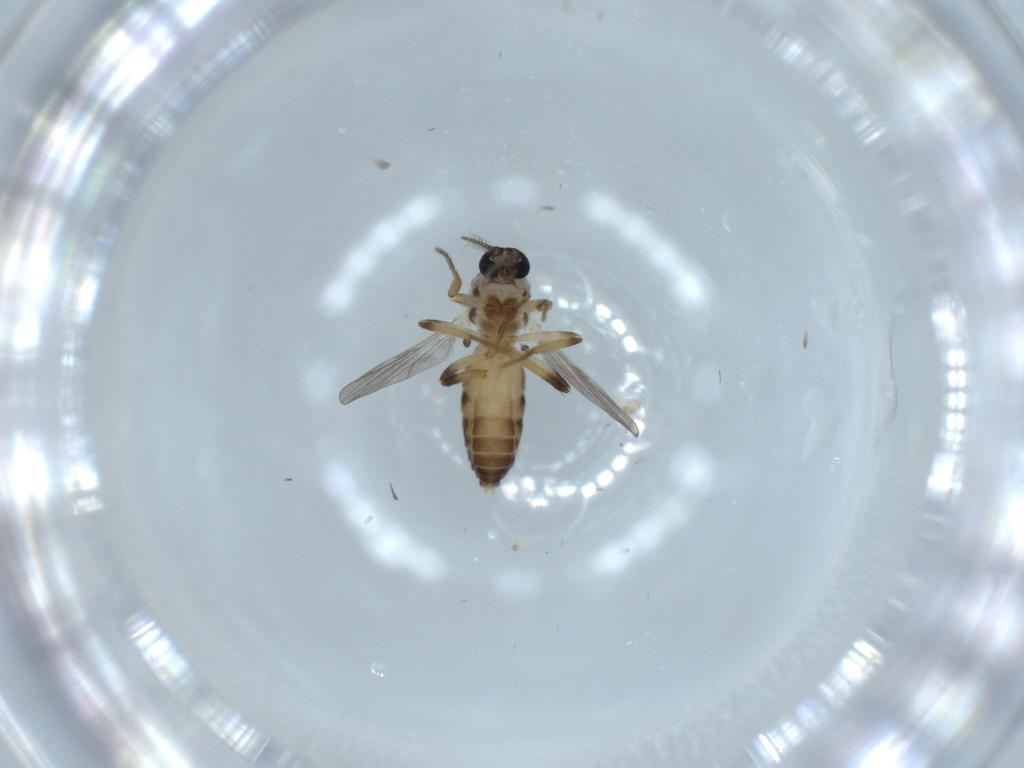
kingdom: Animalia
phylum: Arthropoda
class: Insecta
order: Diptera
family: Ceratopogonidae
